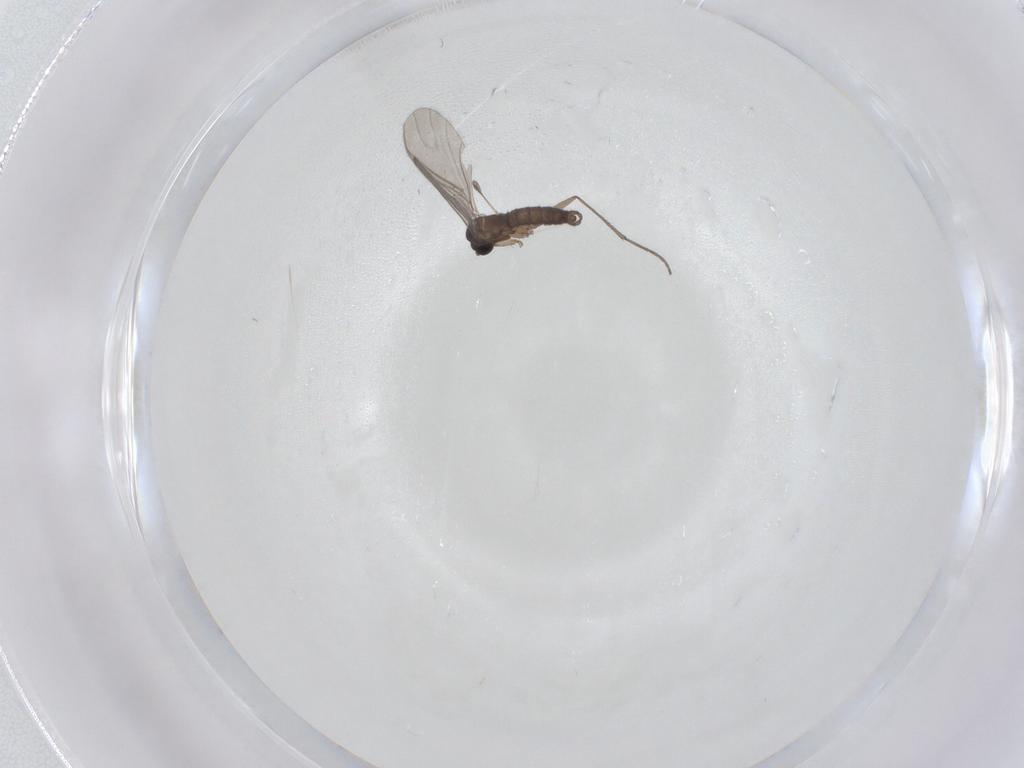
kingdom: Animalia
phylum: Arthropoda
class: Insecta
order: Diptera
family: Sciaridae
